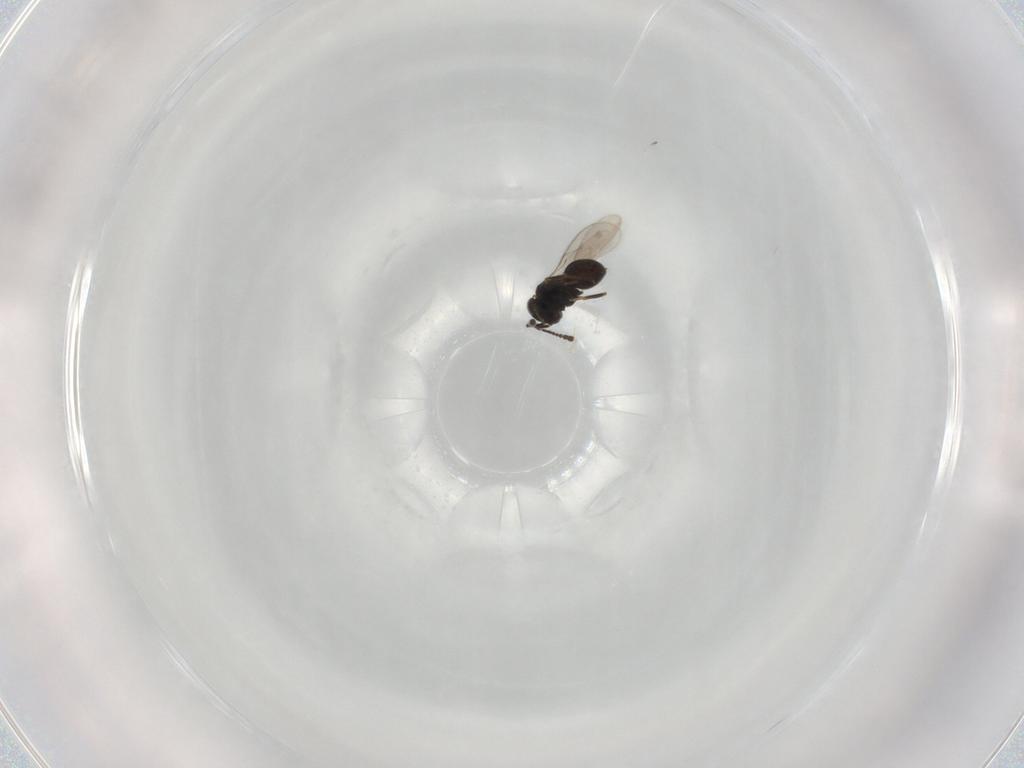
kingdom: Animalia
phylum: Arthropoda
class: Insecta
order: Hymenoptera
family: Scelionidae
